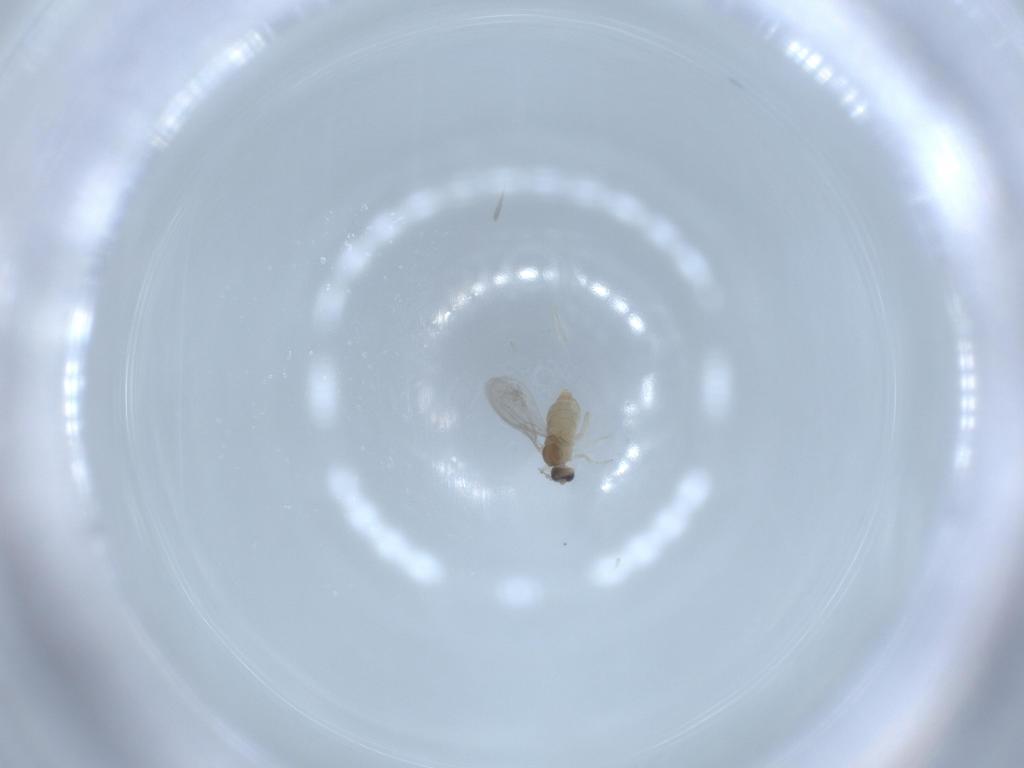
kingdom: Animalia
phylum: Arthropoda
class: Insecta
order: Diptera
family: Cecidomyiidae
